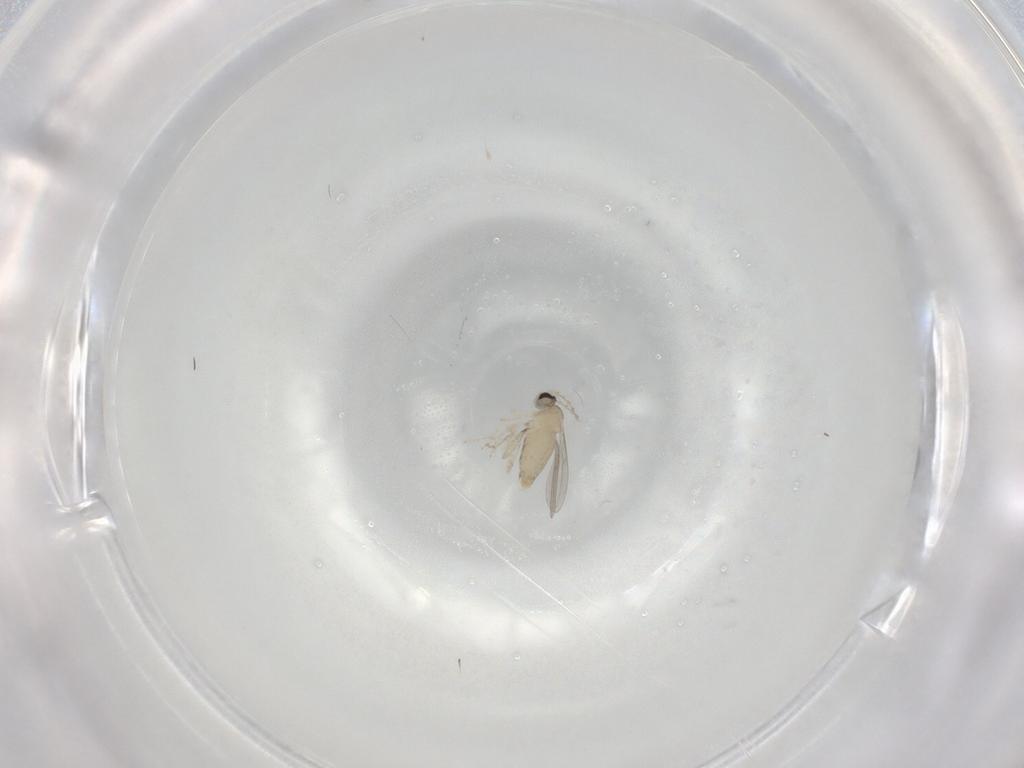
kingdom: Animalia
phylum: Arthropoda
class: Insecta
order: Diptera
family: Cecidomyiidae
